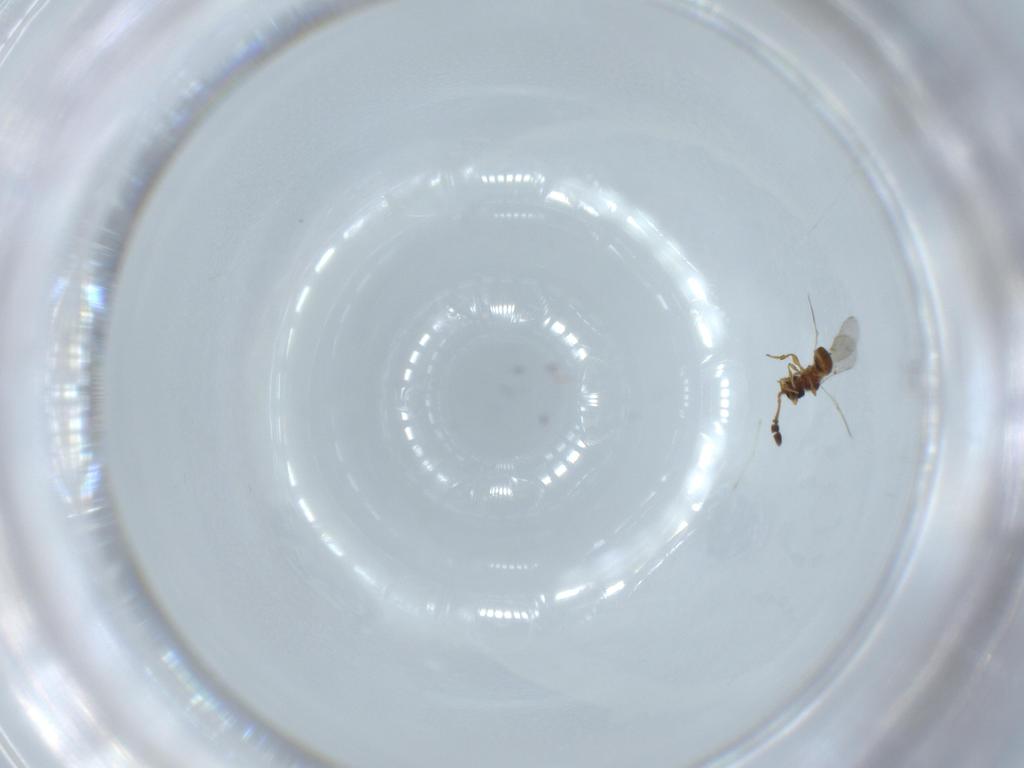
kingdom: Animalia
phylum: Arthropoda
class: Insecta
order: Hymenoptera
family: Diapriidae
